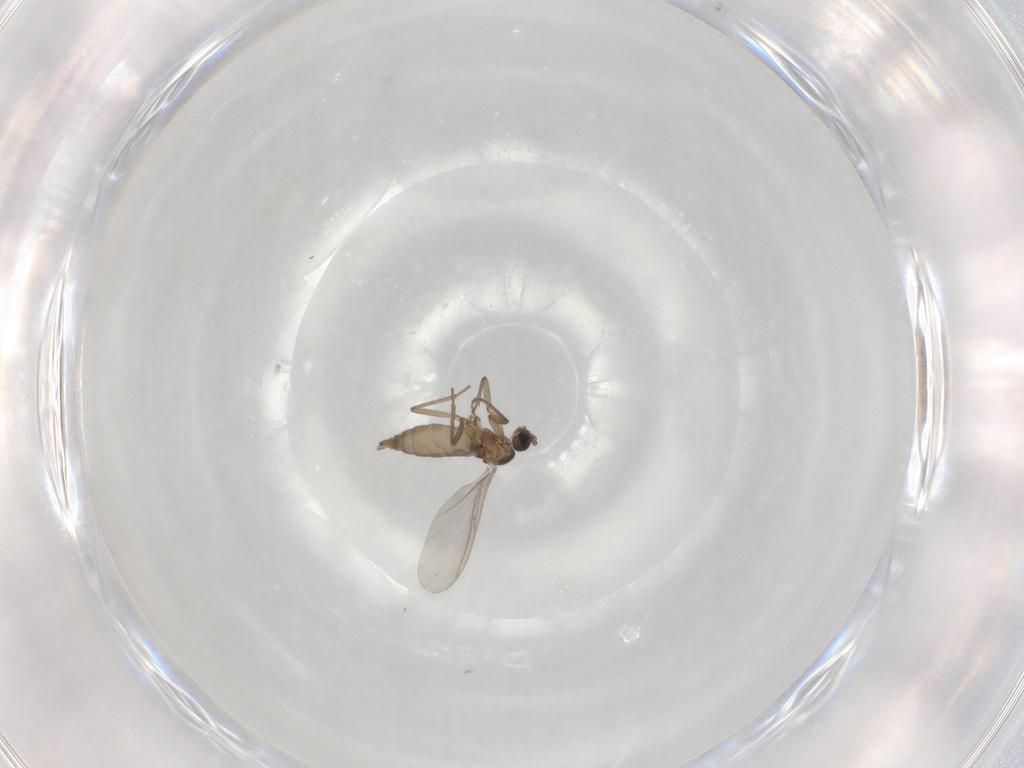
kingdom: Animalia
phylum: Arthropoda
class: Insecta
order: Diptera
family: Muscidae
